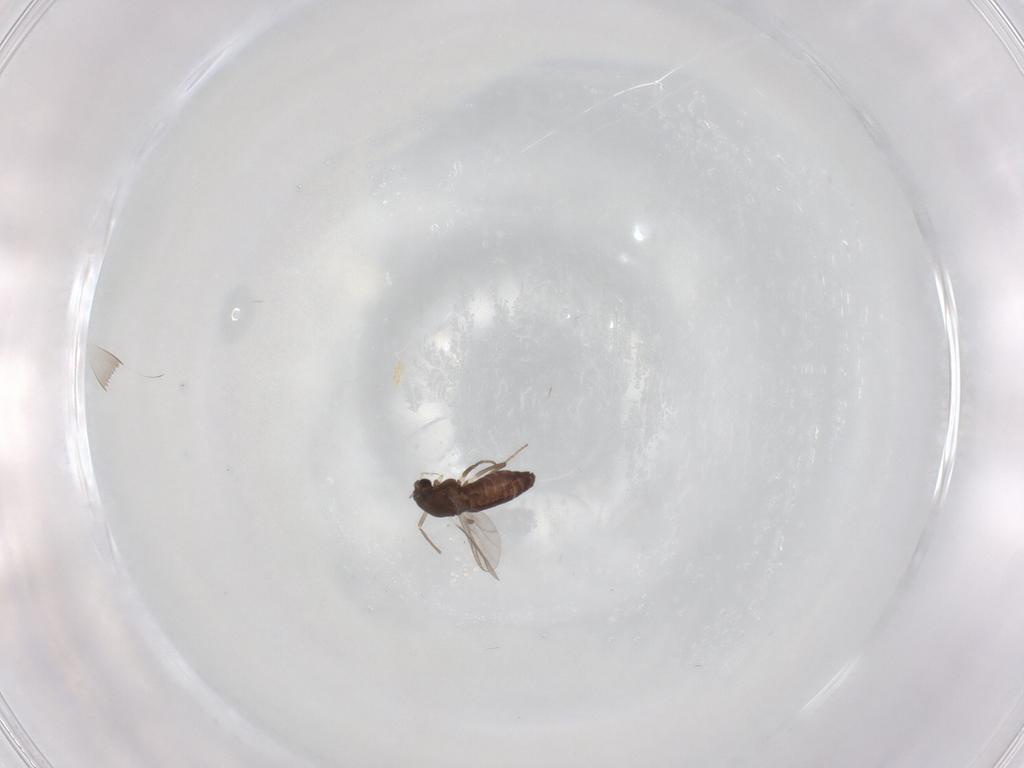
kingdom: Animalia
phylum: Arthropoda
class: Insecta
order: Diptera
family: Chironomidae
